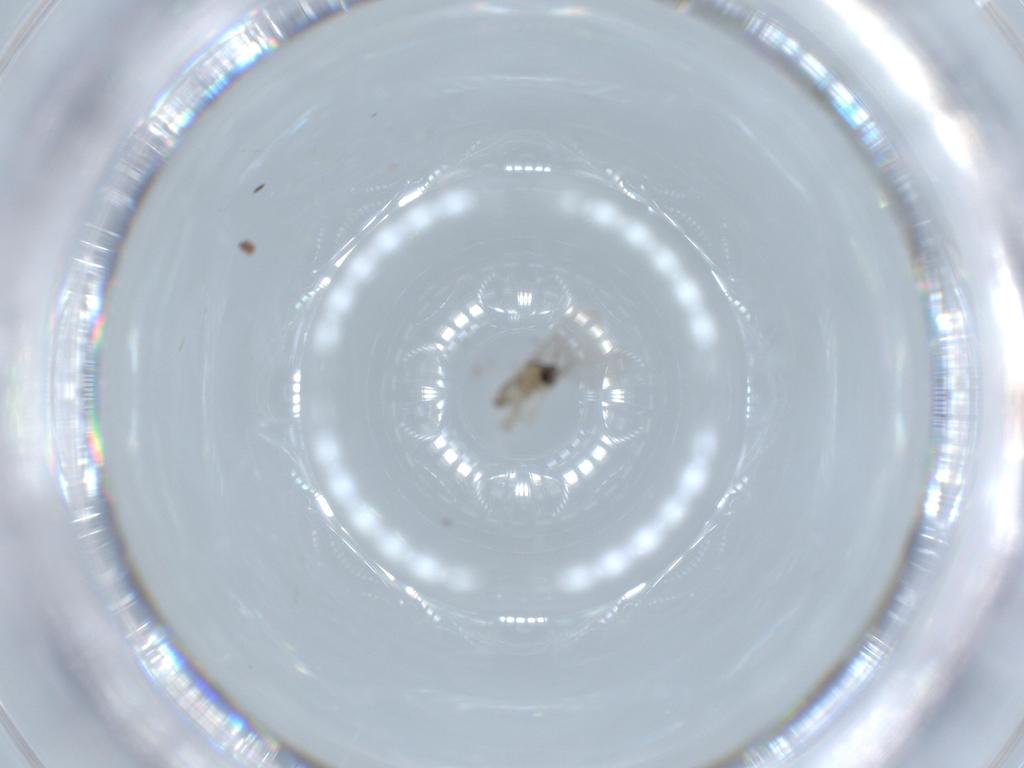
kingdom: Animalia
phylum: Arthropoda
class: Insecta
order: Diptera
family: Cecidomyiidae
